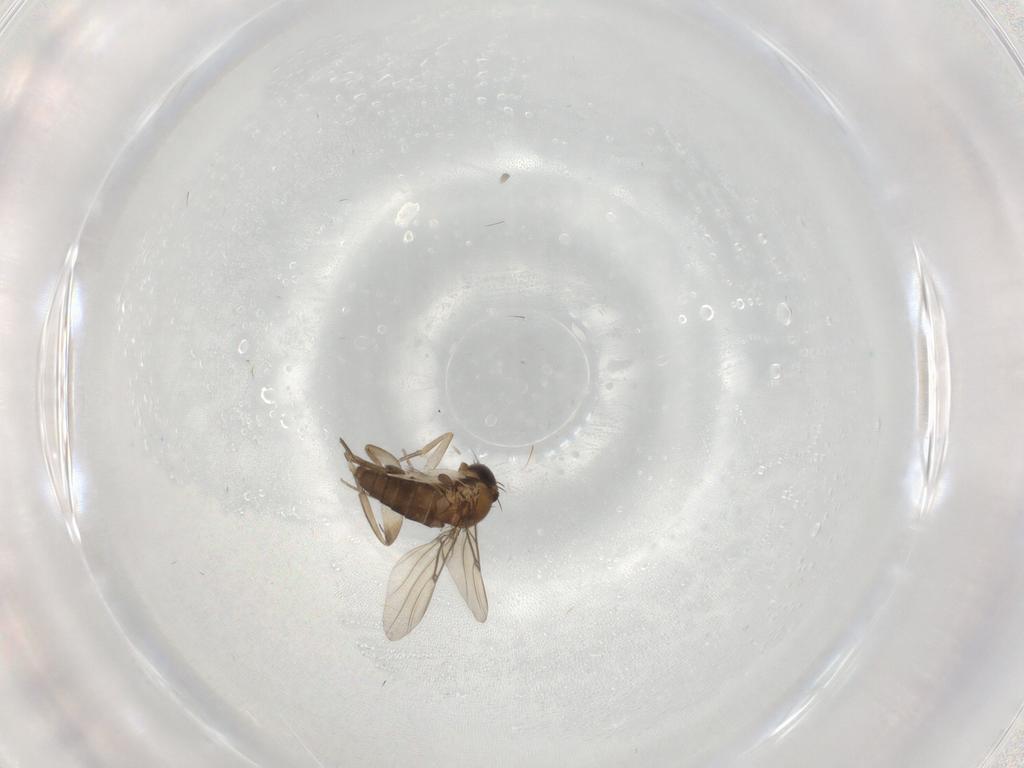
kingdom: Animalia
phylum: Arthropoda
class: Insecta
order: Diptera
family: Phoridae
